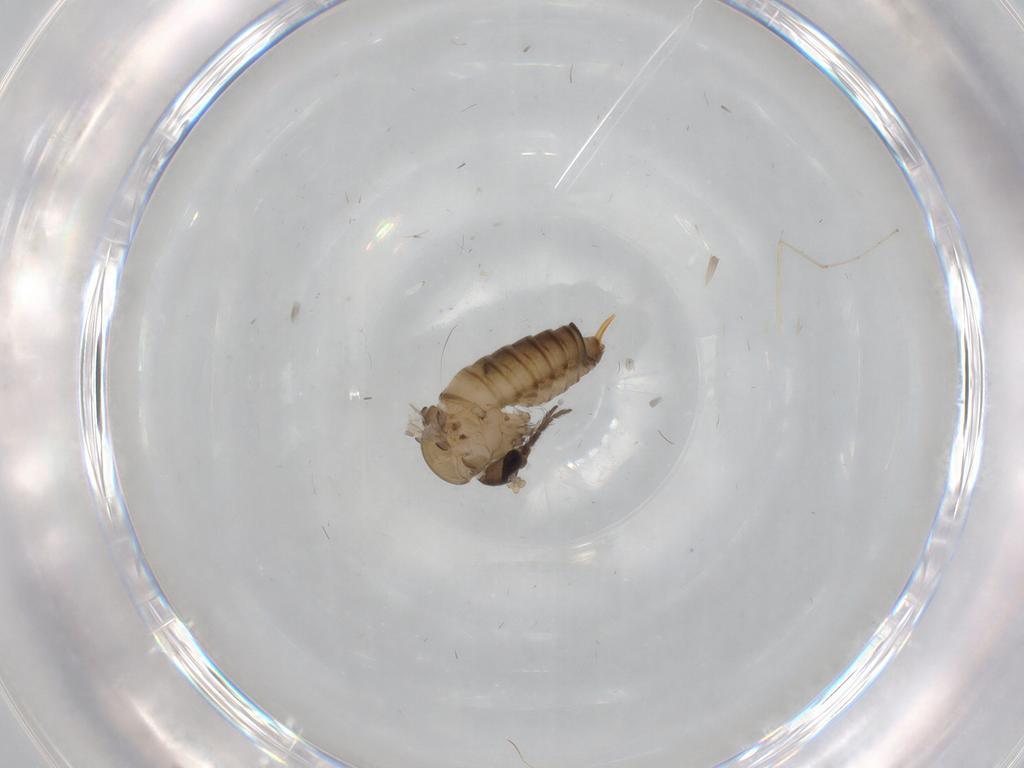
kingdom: Animalia
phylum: Arthropoda
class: Insecta
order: Diptera
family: Psychodidae
